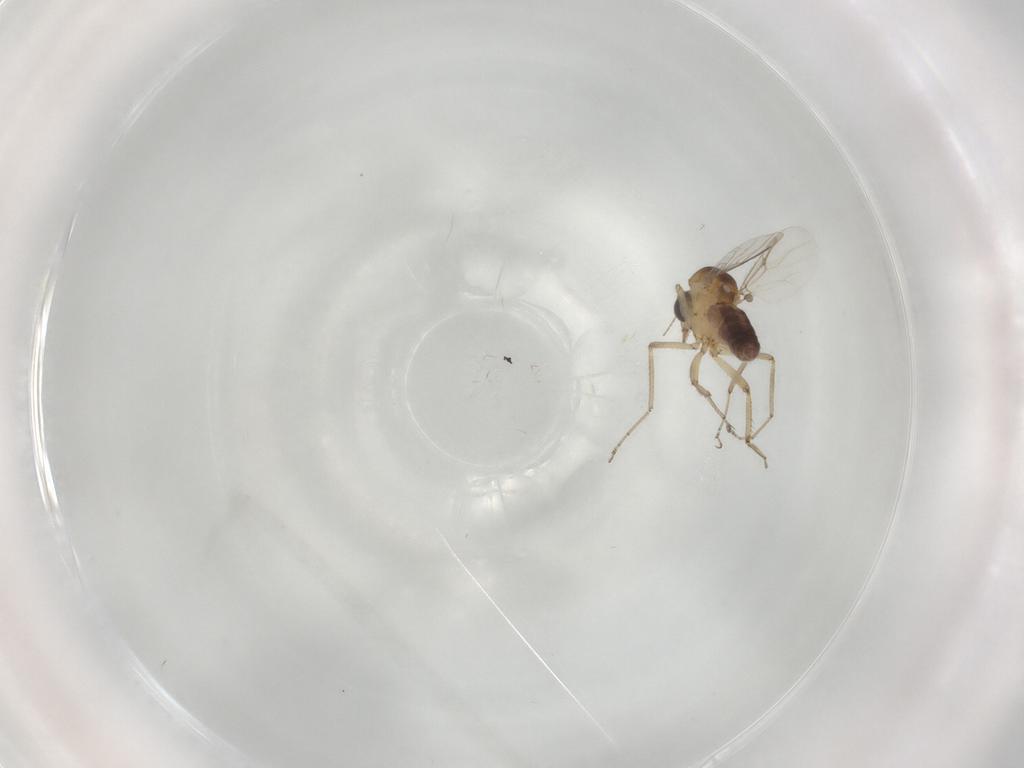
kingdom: Animalia
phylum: Arthropoda
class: Insecta
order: Diptera
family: Ceratopogonidae
